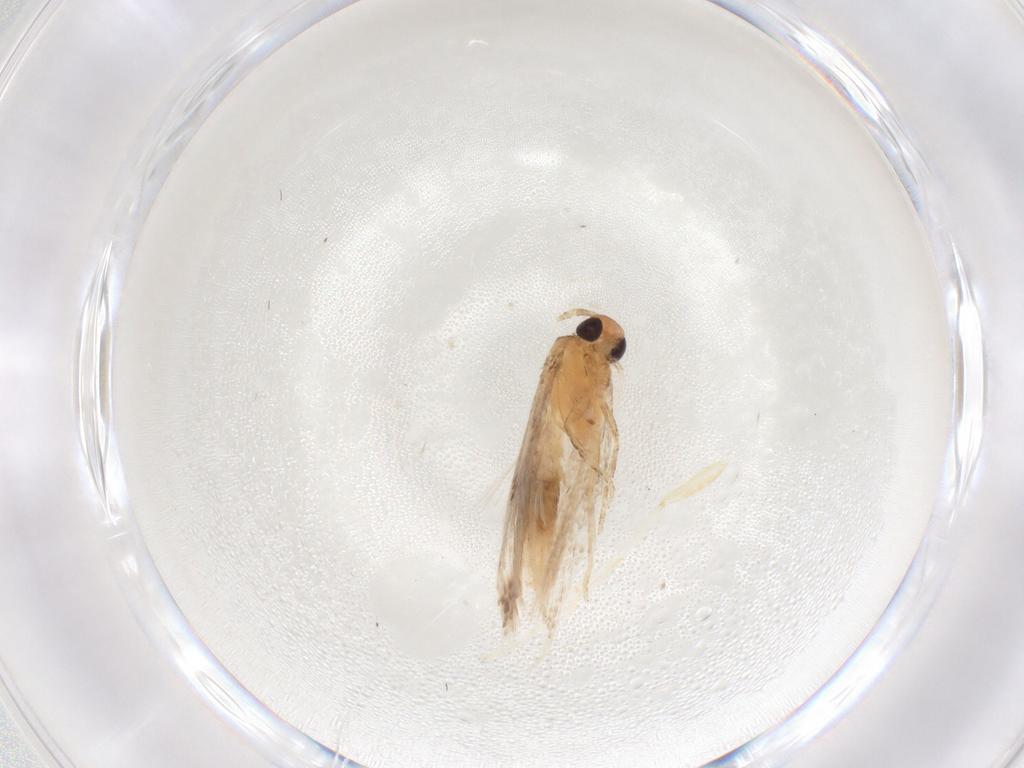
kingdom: Animalia
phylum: Arthropoda
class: Insecta
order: Lepidoptera
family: Gelechiidae
